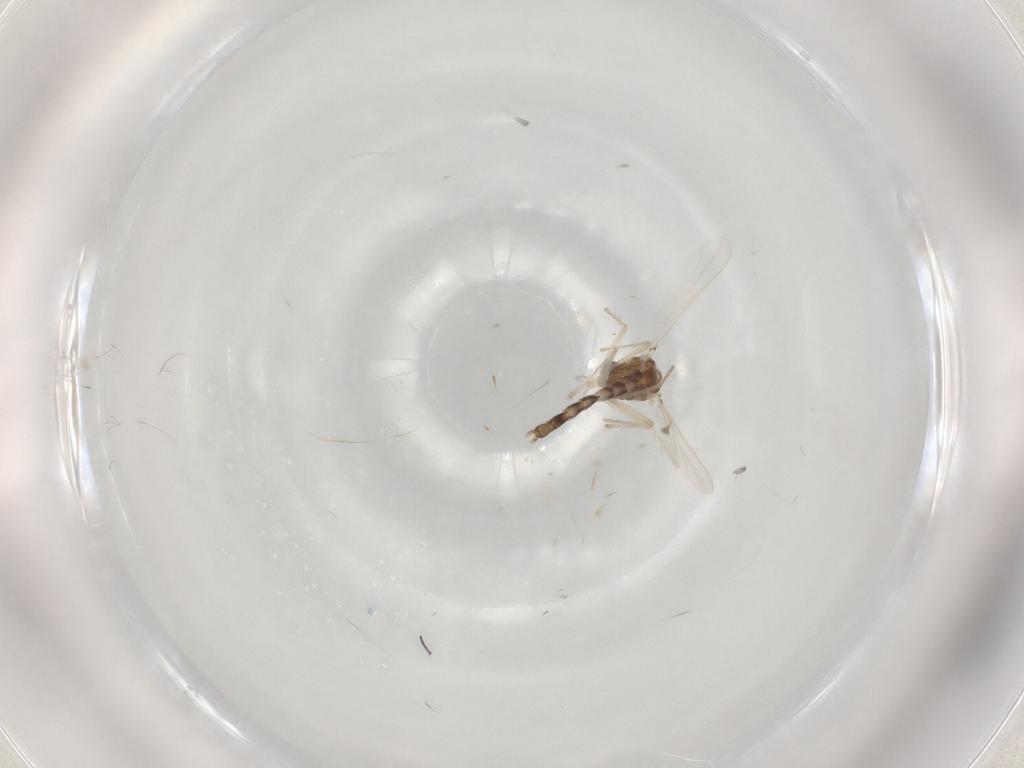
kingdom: Animalia
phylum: Arthropoda
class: Insecta
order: Diptera
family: Chironomidae
